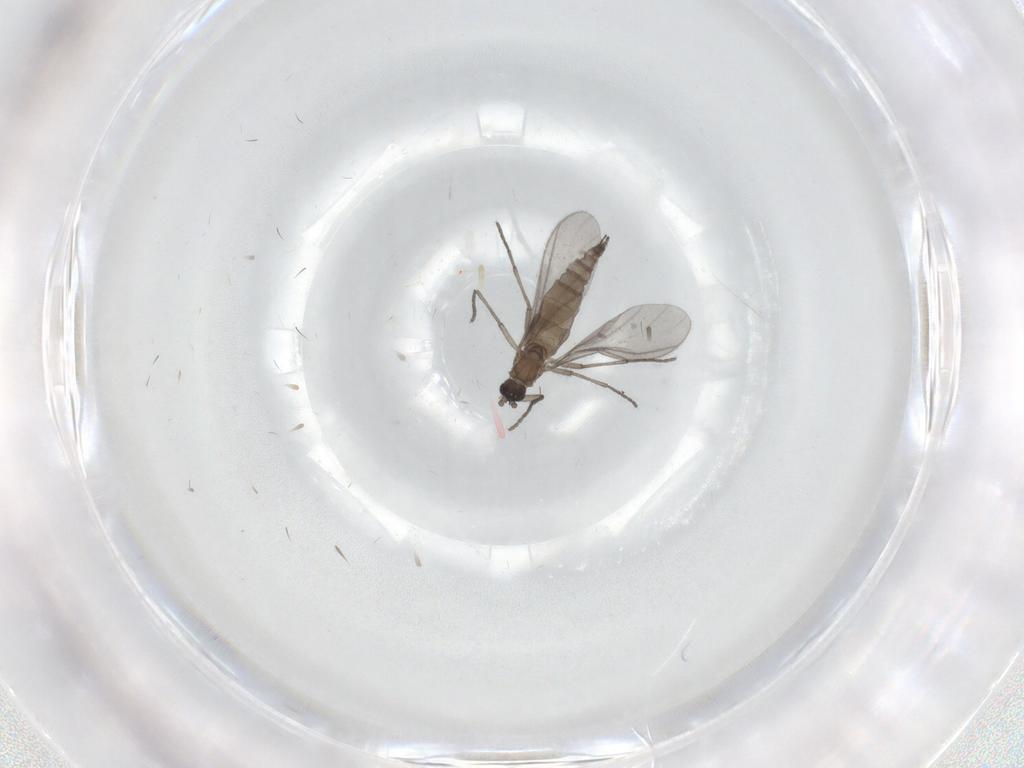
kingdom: Animalia
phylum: Arthropoda
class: Insecta
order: Diptera
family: Sciaridae
